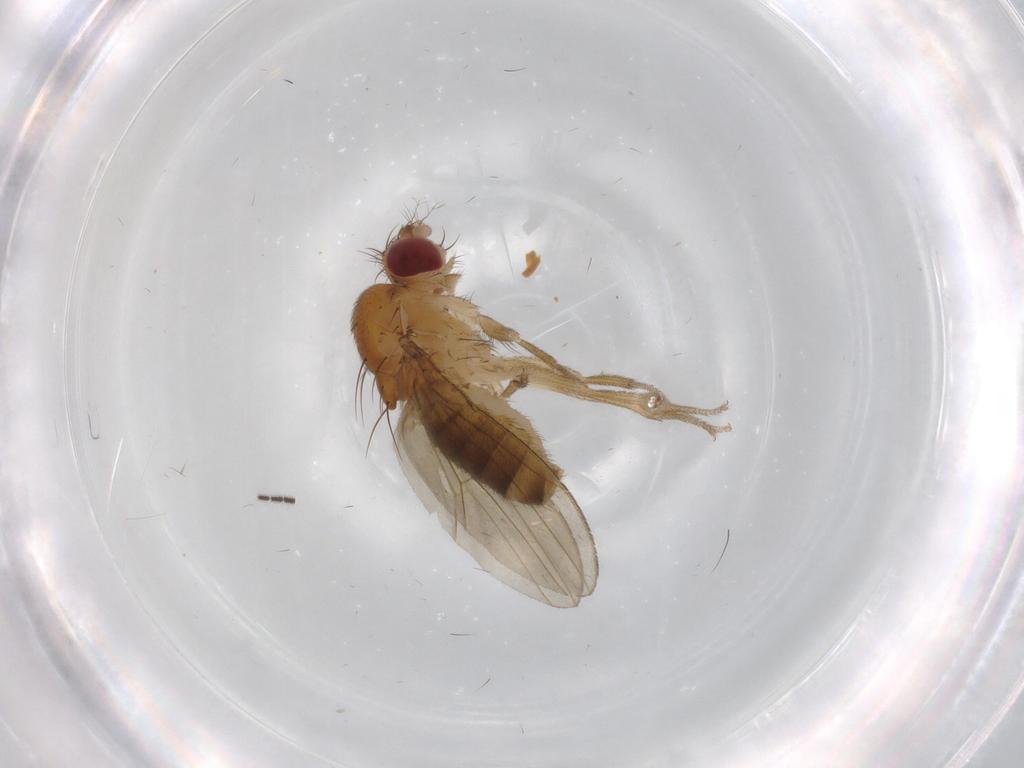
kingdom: Animalia
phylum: Arthropoda
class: Insecta
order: Diptera
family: Drosophilidae
